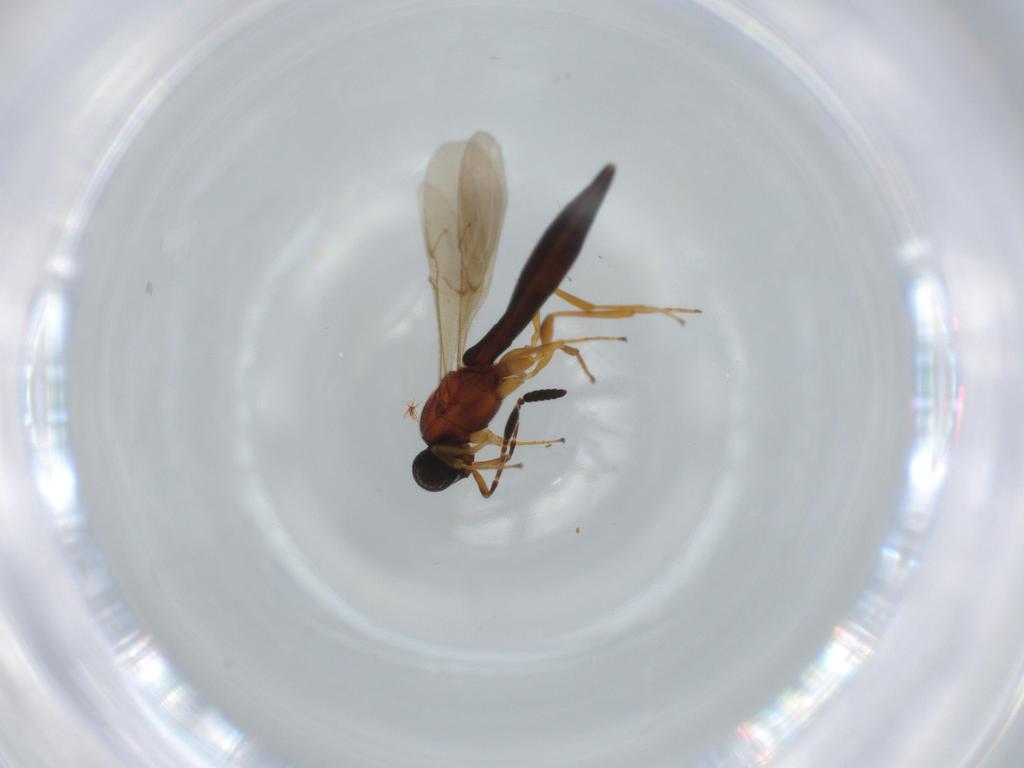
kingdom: Animalia
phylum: Arthropoda
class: Insecta
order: Hymenoptera
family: Scelionidae
